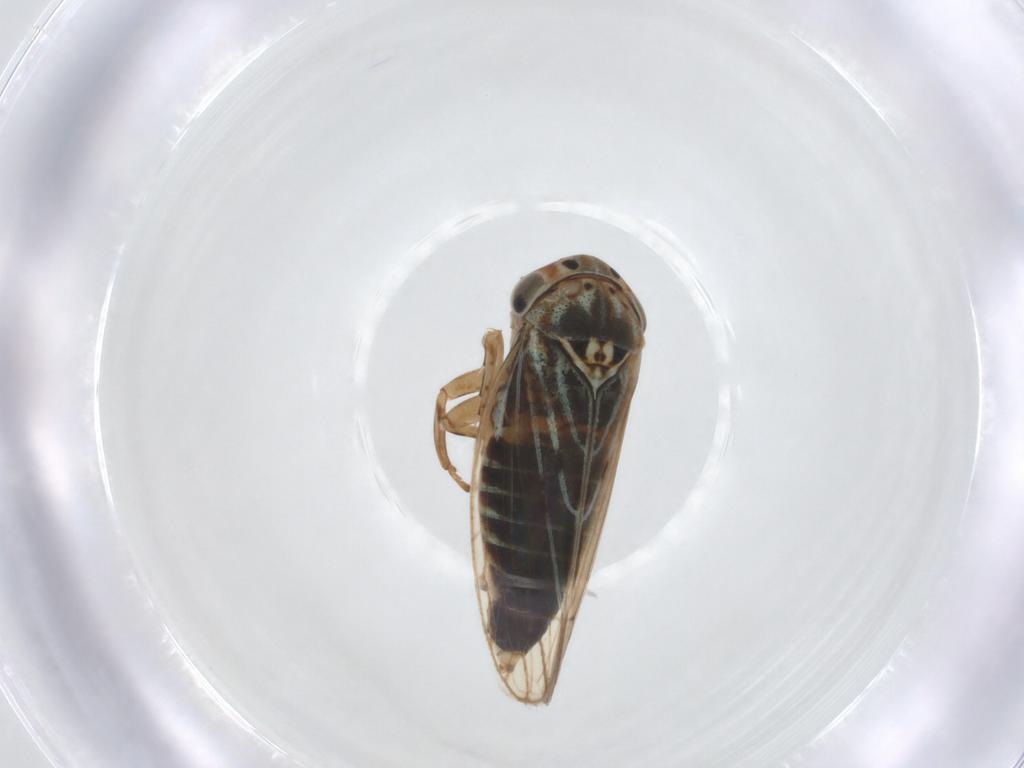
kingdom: Animalia
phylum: Arthropoda
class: Insecta
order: Hemiptera
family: Cicadellidae
